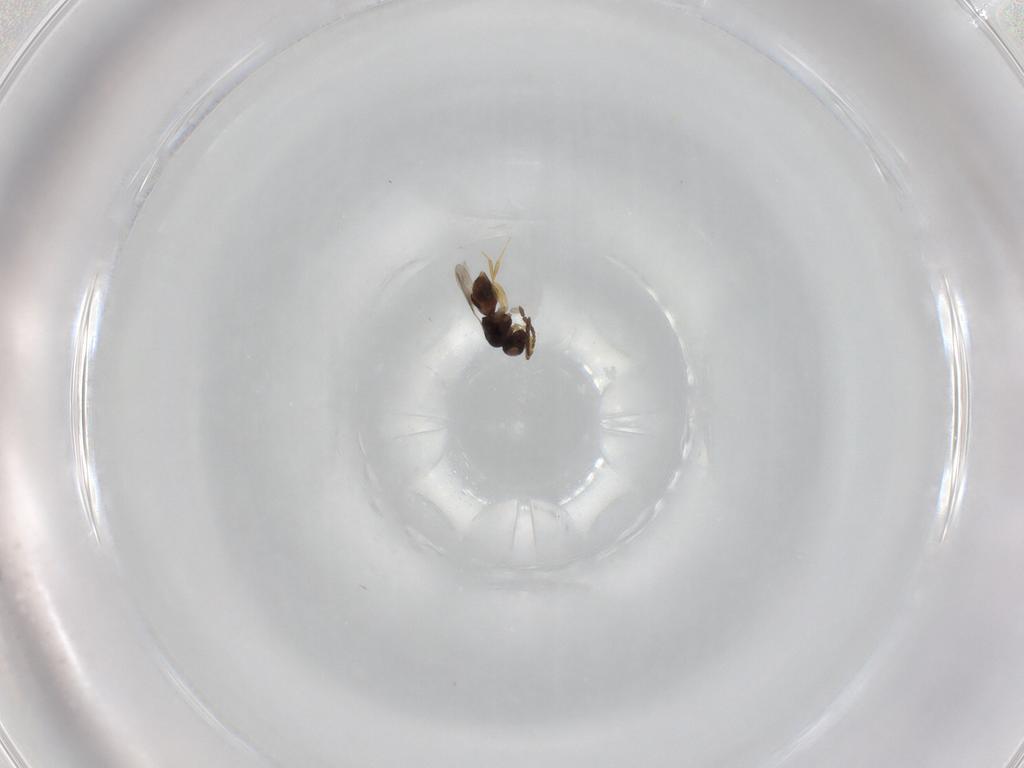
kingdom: Animalia
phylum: Arthropoda
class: Insecta
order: Hymenoptera
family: Ichneumonidae
